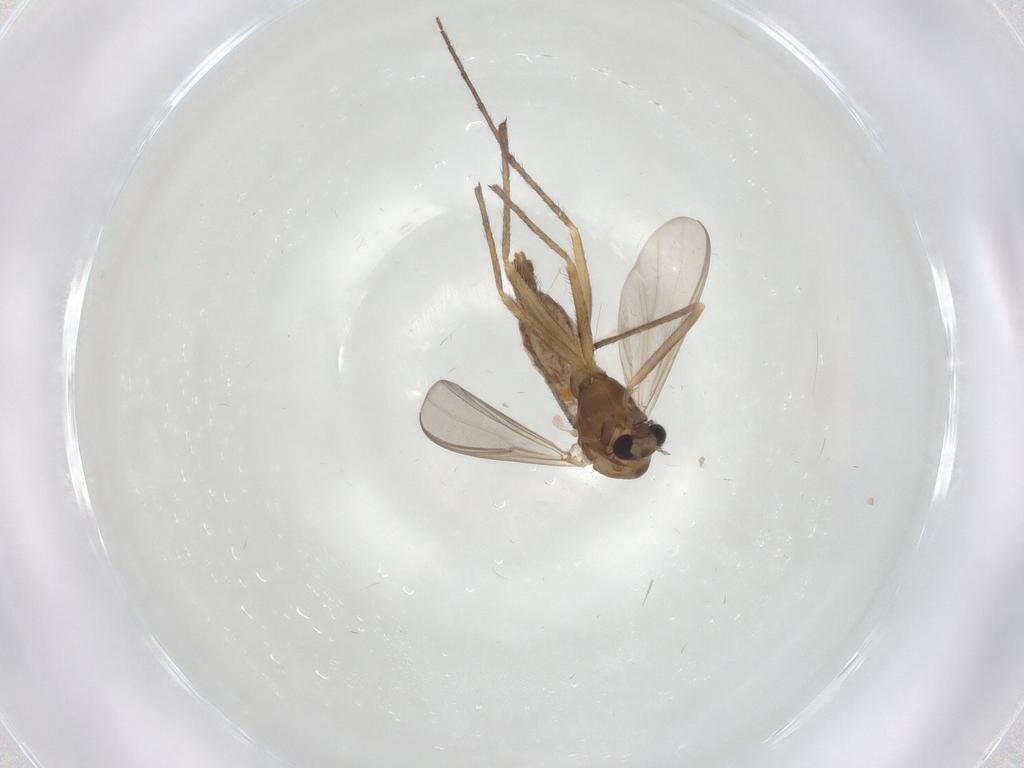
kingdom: Animalia
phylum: Arthropoda
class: Insecta
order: Diptera
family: Chironomidae
